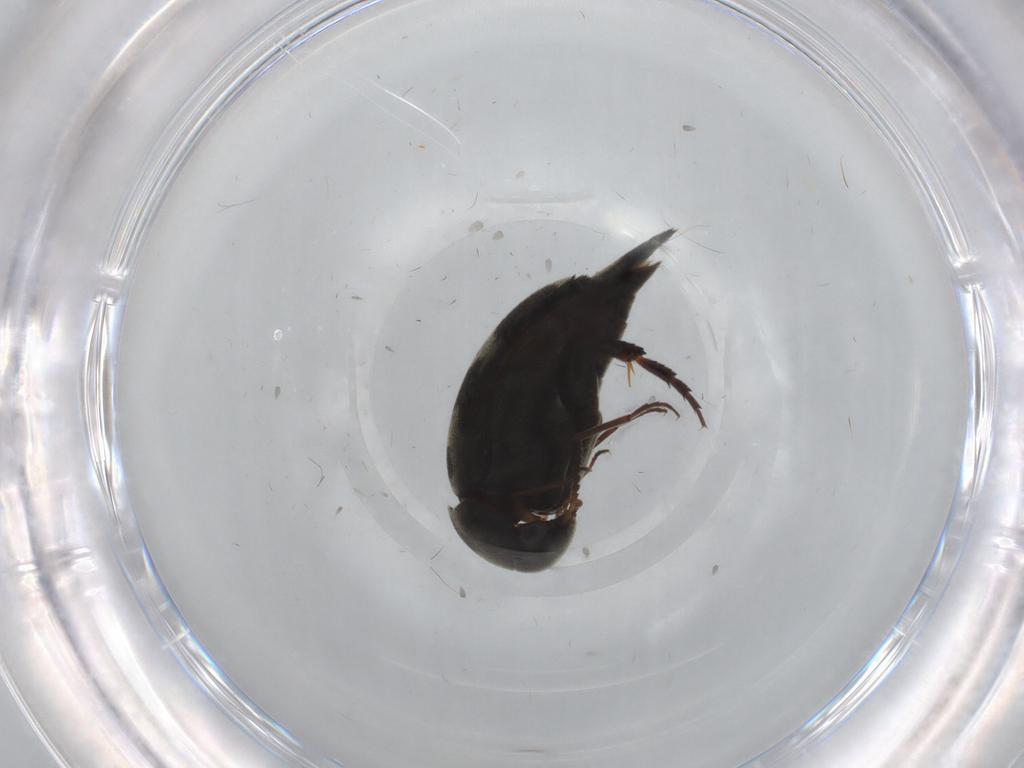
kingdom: Animalia
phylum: Arthropoda
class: Insecta
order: Coleoptera
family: Mordellidae
